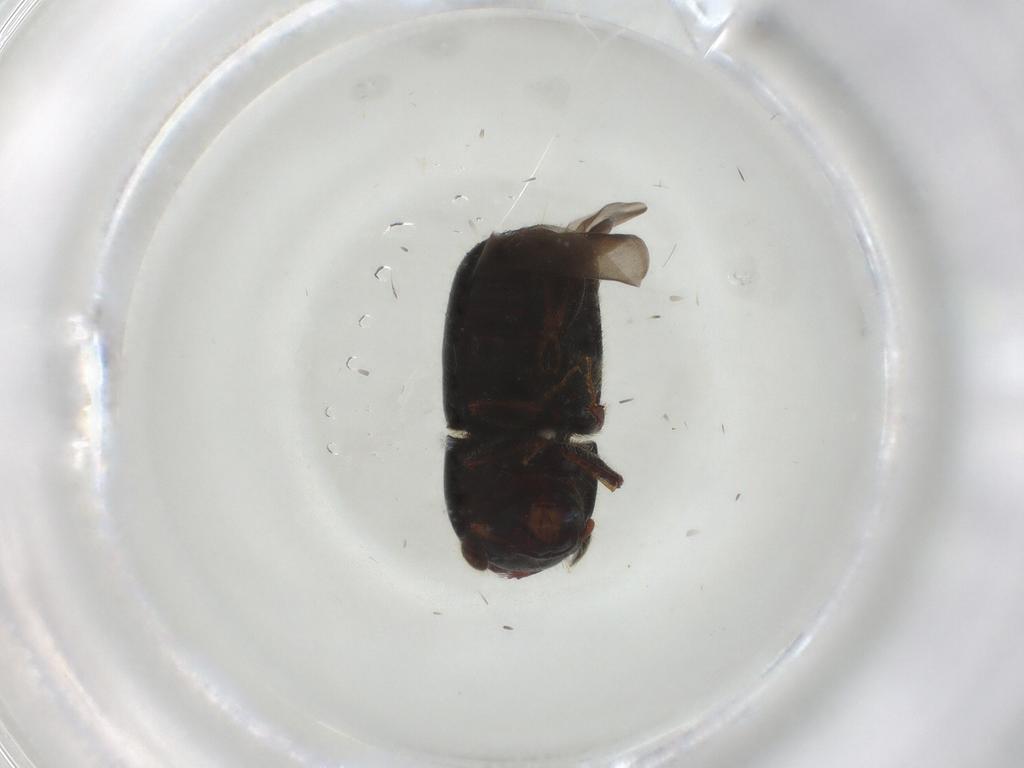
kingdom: Animalia
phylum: Arthropoda
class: Insecta
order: Coleoptera
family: Curculionidae
